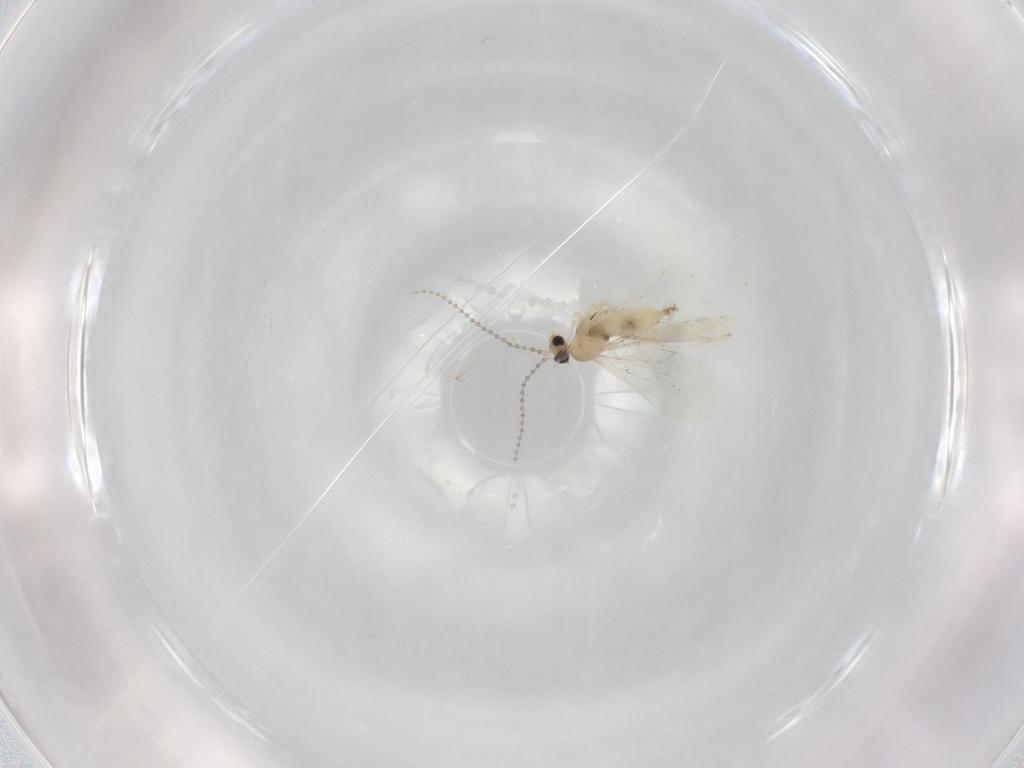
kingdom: Animalia
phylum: Arthropoda
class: Insecta
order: Diptera
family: Cecidomyiidae
